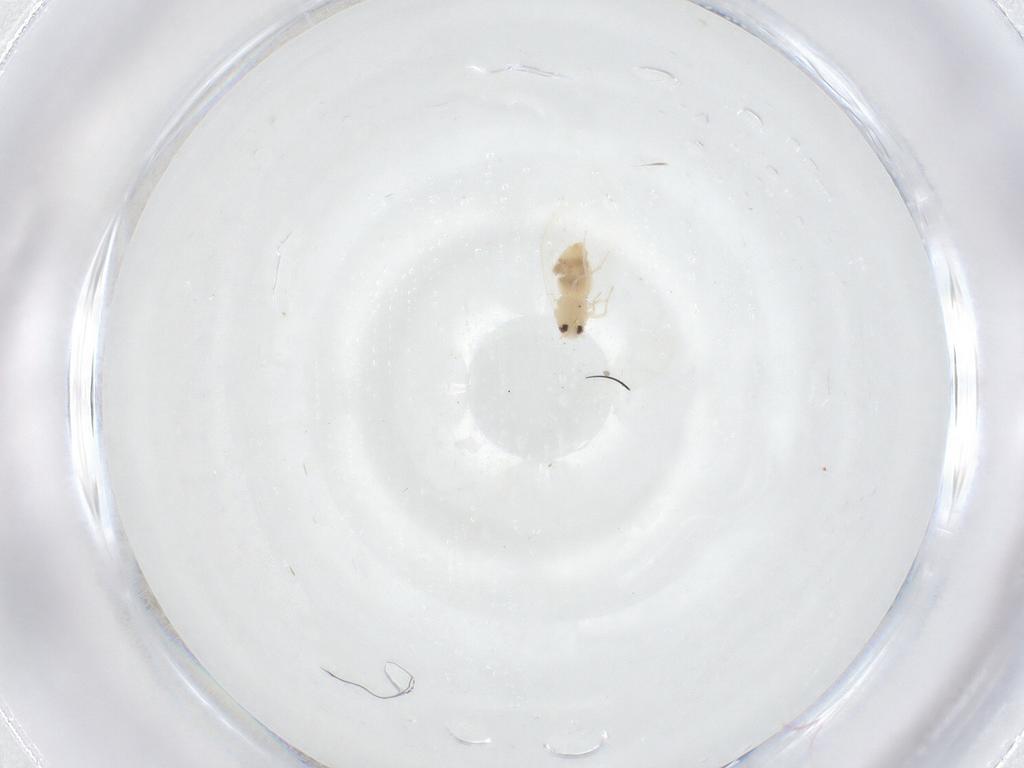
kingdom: Animalia
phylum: Arthropoda
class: Insecta
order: Hemiptera
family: Aleyrodidae
